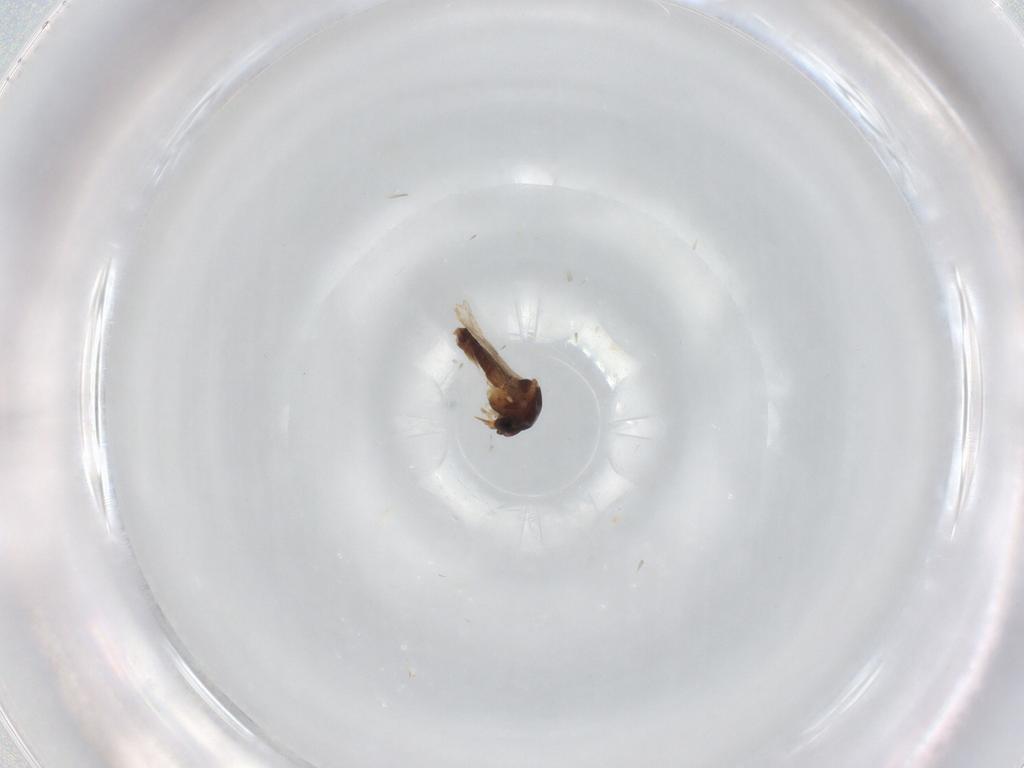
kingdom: Animalia
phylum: Arthropoda
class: Insecta
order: Diptera
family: Ceratopogonidae
